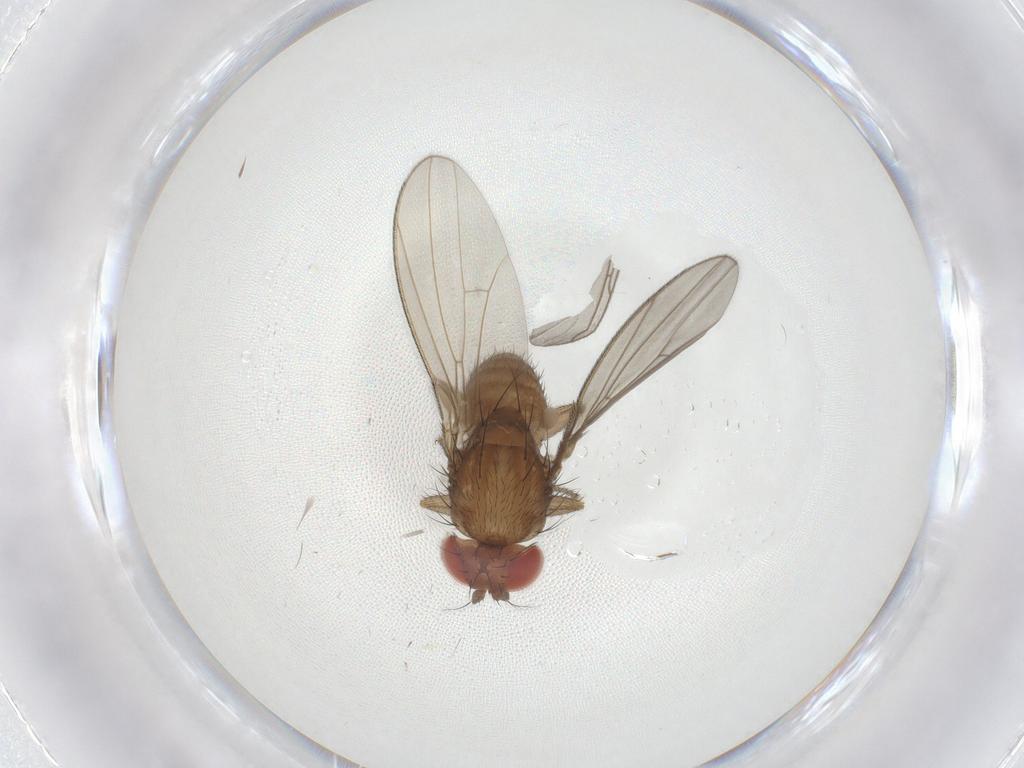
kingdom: Animalia
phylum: Arthropoda
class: Insecta
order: Diptera
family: Drosophilidae
